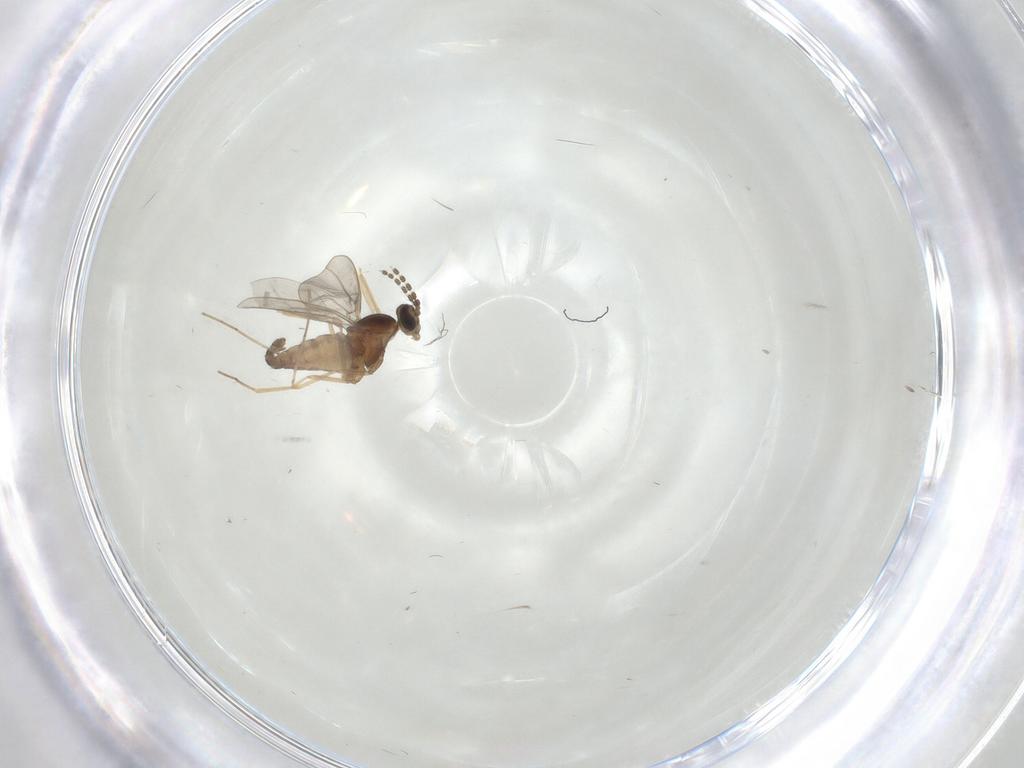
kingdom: Animalia
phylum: Arthropoda
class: Insecta
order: Diptera
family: Cecidomyiidae
